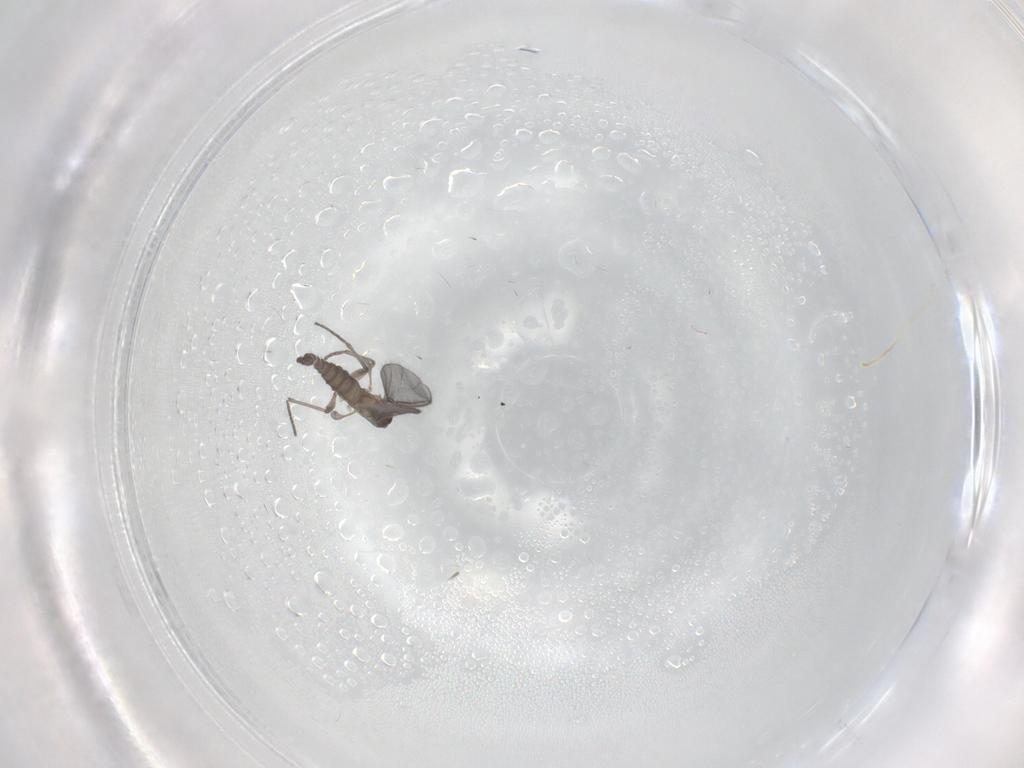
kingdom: Animalia
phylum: Arthropoda
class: Insecta
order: Diptera
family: Sciaridae
